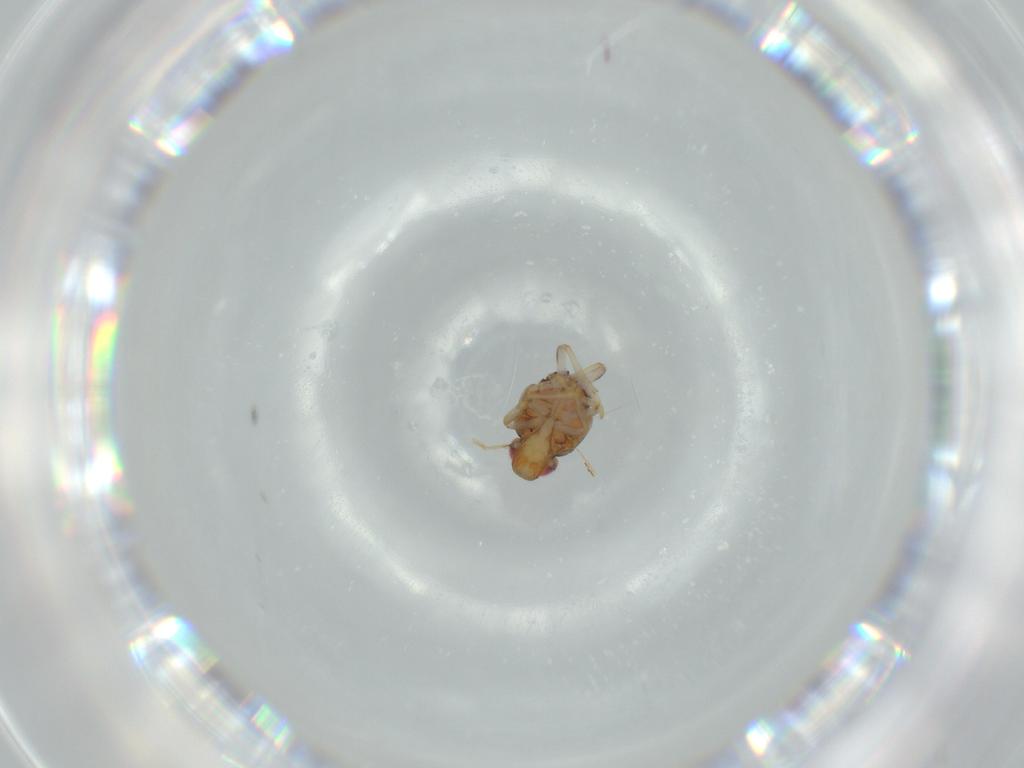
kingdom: Animalia
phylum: Arthropoda
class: Insecta
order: Hemiptera
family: Issidae
